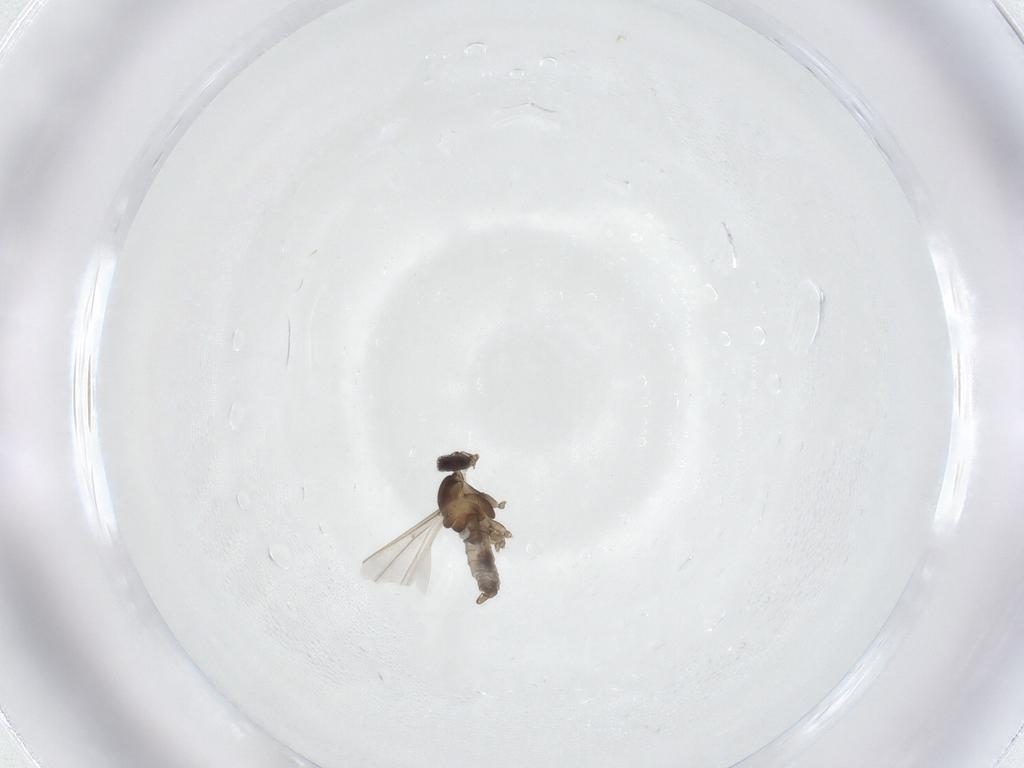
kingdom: Animalia
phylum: Arthropoda
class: Insecta
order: Diptera
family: Cecidomyiidae
